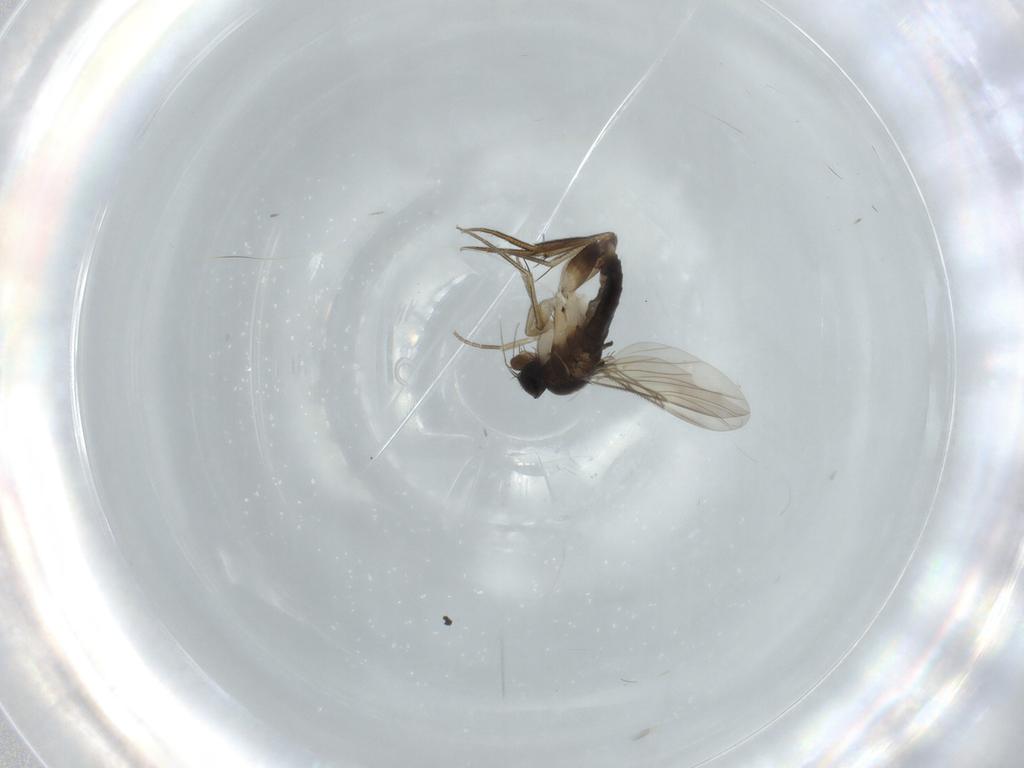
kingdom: Animalia
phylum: Arthropoda
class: Insecta
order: Diptera
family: Phoridae
